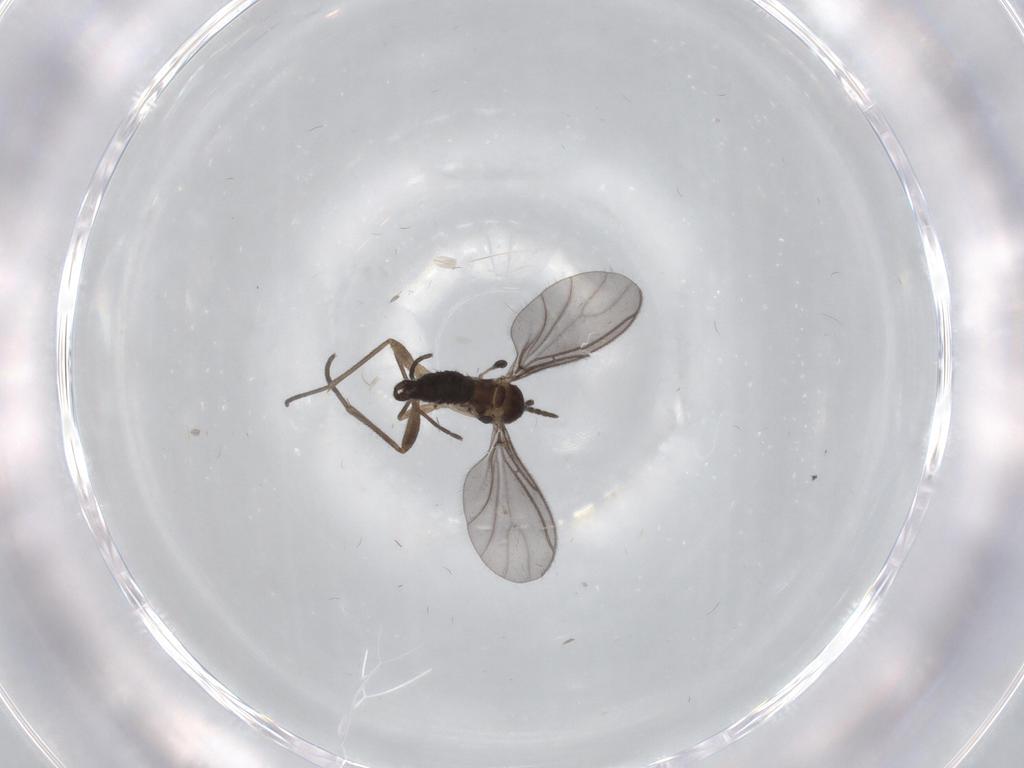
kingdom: Animalia
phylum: Arthropoda
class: Insecta
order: Diptera
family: Sciaridae
